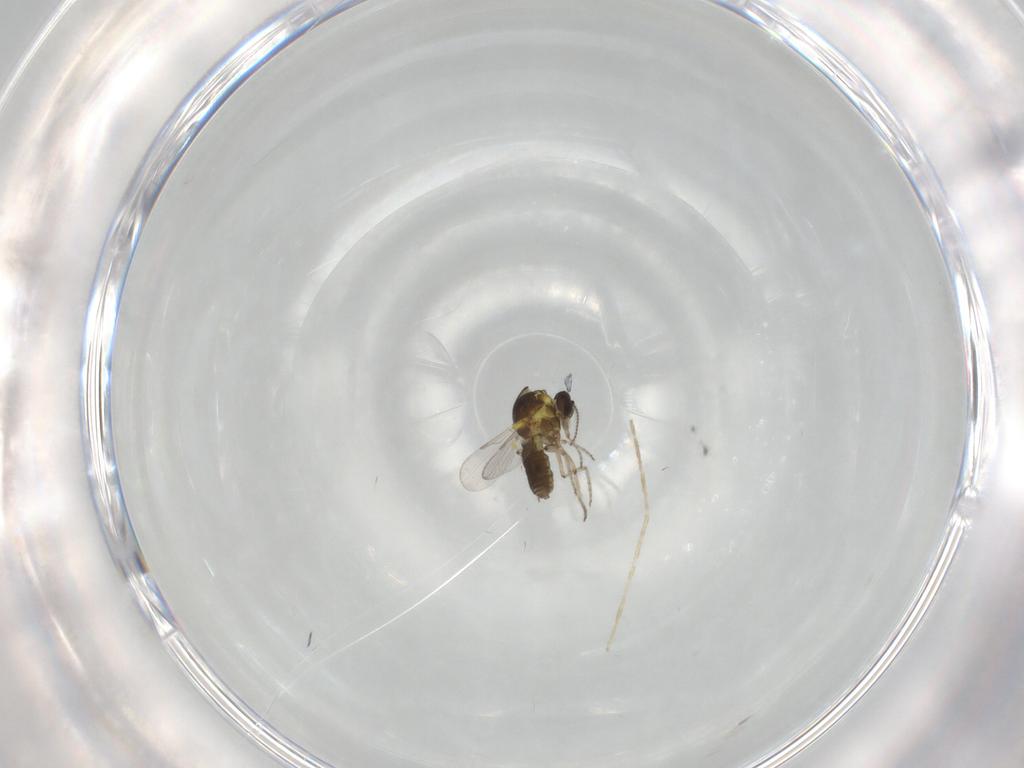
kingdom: Animalia
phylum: Arthropoda
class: Insecta
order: Diptera
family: Ceratopogonidae
